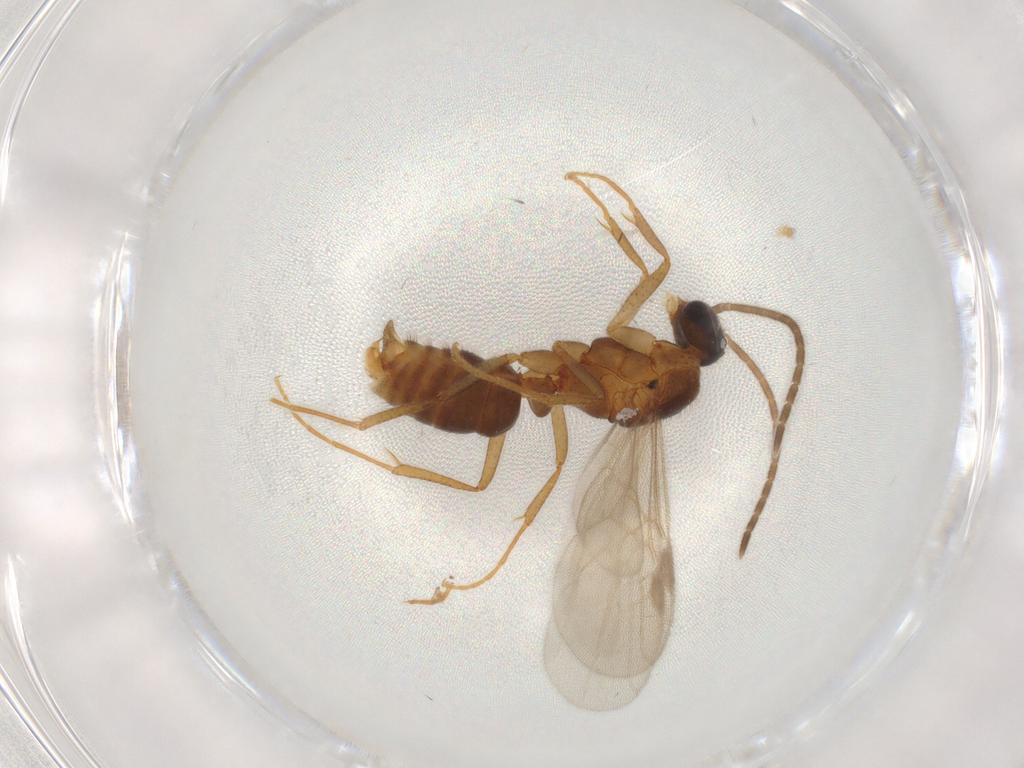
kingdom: Animalia
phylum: Arthropoda
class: Insecta
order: Hymenoptera
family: Formicidae
